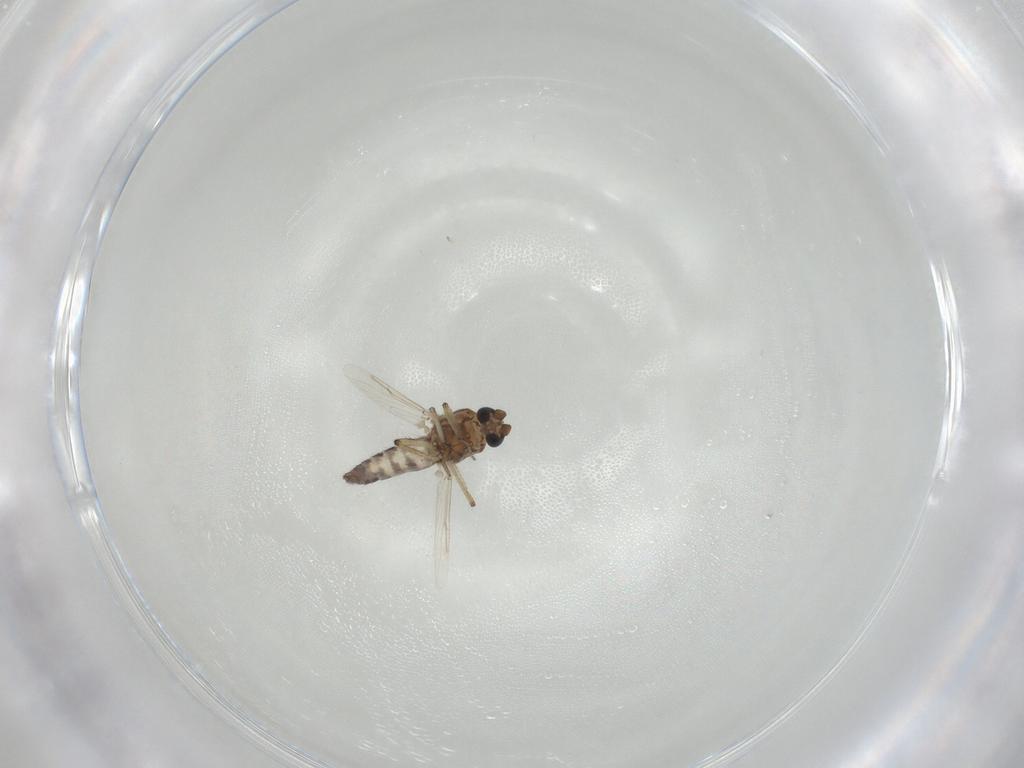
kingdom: Animalia
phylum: Arthropoda
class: Insecta
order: Diptera
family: Ceratopogonidae
